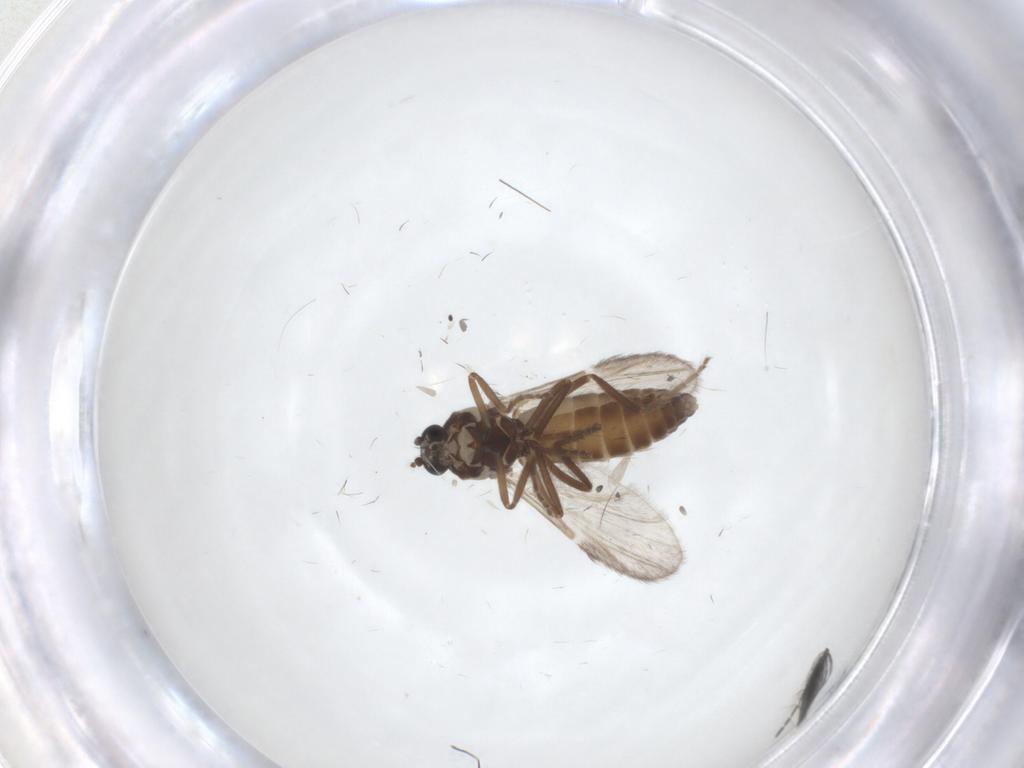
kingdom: Animalia
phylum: Arthropoda
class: Insecta
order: Diptera
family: Ceratopogonidae
